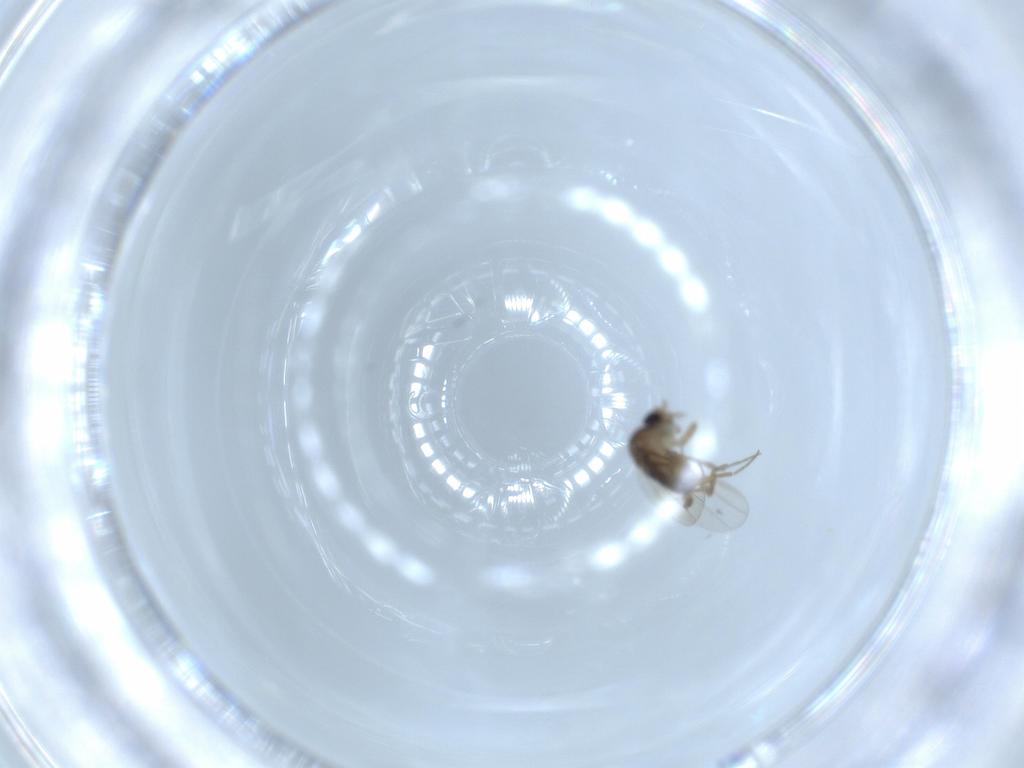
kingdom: Animalia
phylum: Arthropoda
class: Insecta
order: Diptera
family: Phoridae
